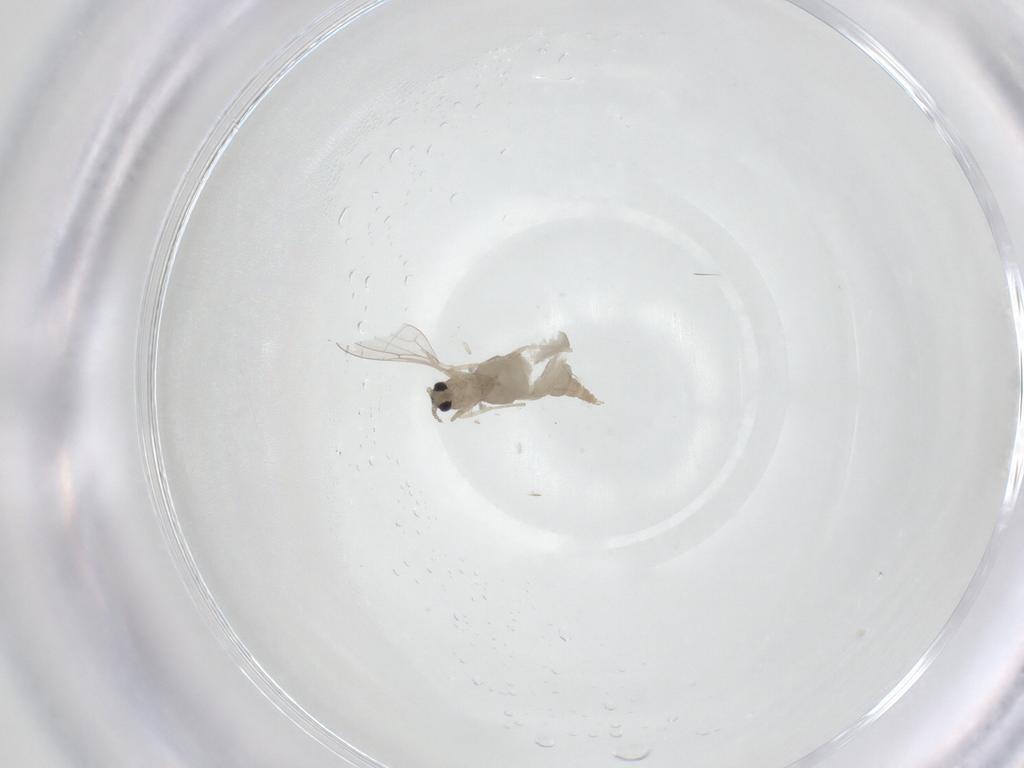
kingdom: Animalia
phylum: Arthropoda
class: Insecta
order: Diptera
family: Cecidomyiidae
